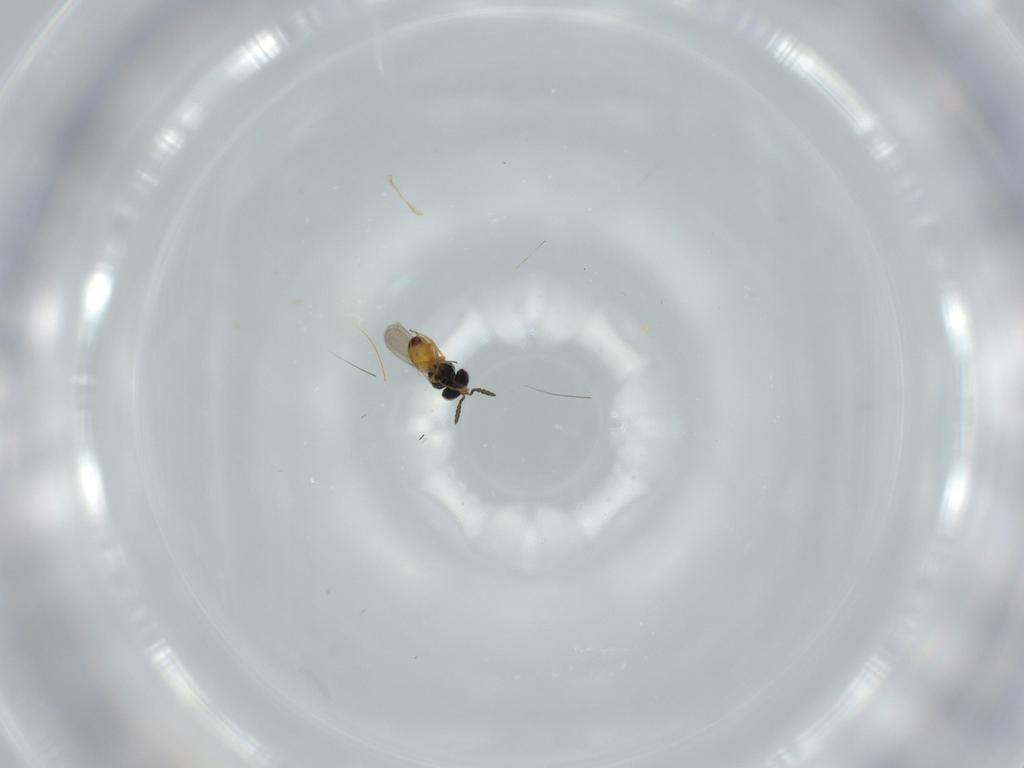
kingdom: Animalia
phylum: Arthropoda
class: Insecta
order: Hymenoptera
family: Scelionidae
